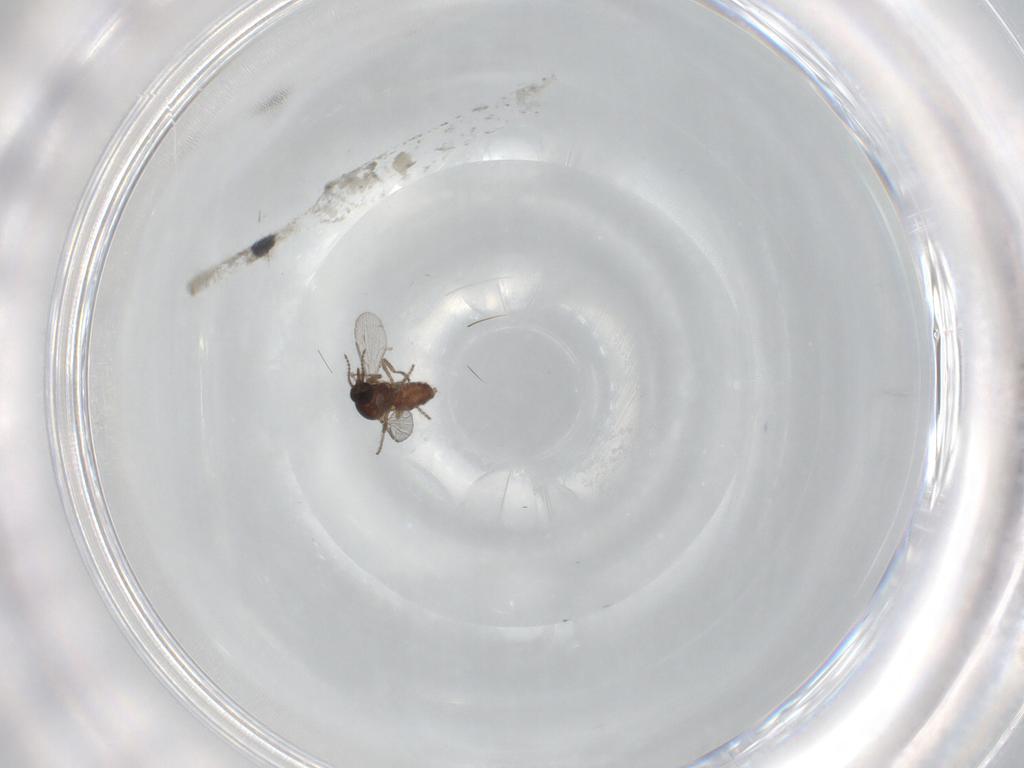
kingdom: Animalia
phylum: Arthropoda
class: Insecta
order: Diptera
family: Ceratopogonidae
